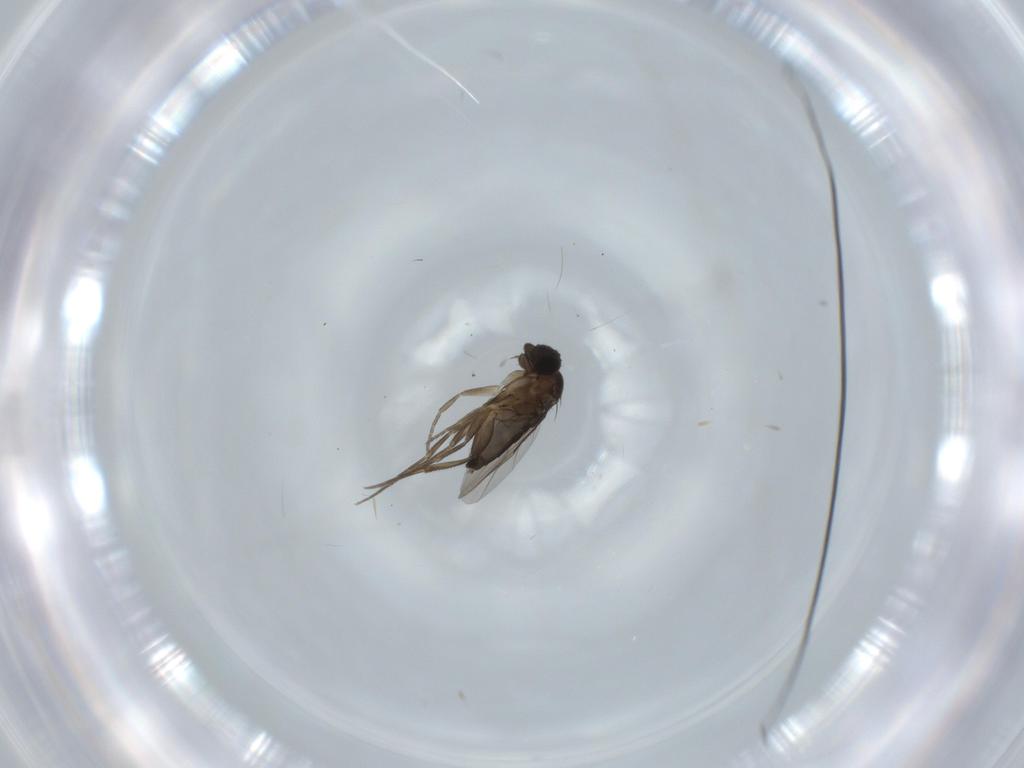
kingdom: Animalia
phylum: Arthropoda
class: Insecta
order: Diptera
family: Phoridae
